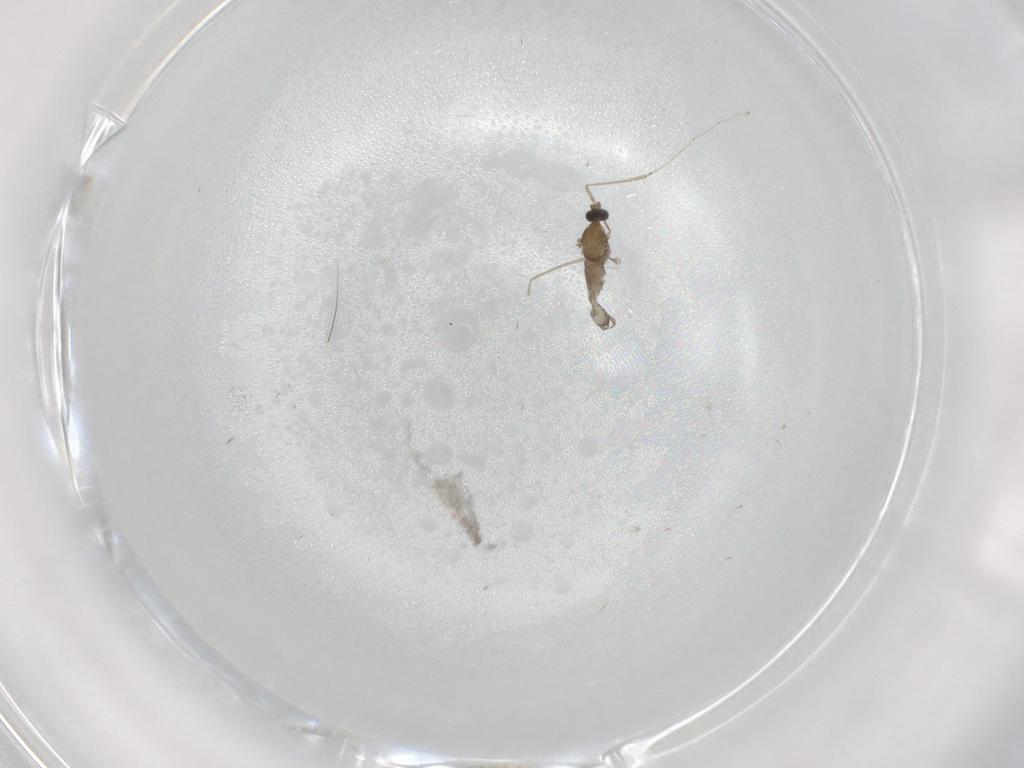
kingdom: Animalia
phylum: Arthropoda
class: Insecta
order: Diptera
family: Cecidomyiidae
